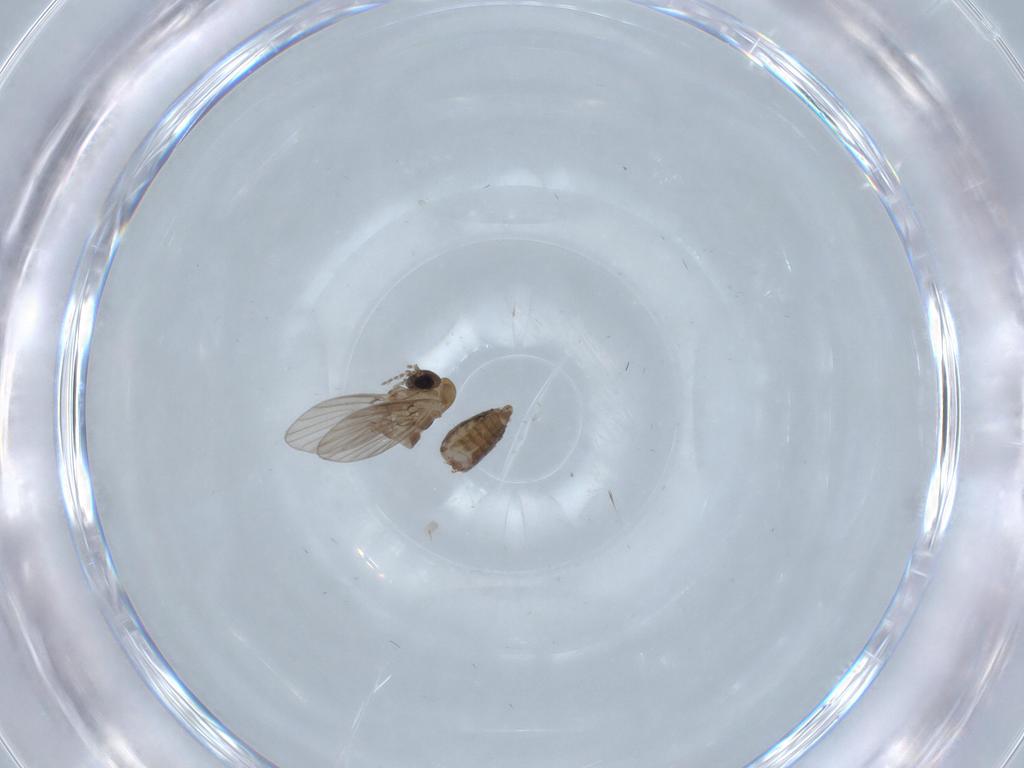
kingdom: Animalia
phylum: Arthropoda
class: Insecta
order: Diptera
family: Psychodidae
